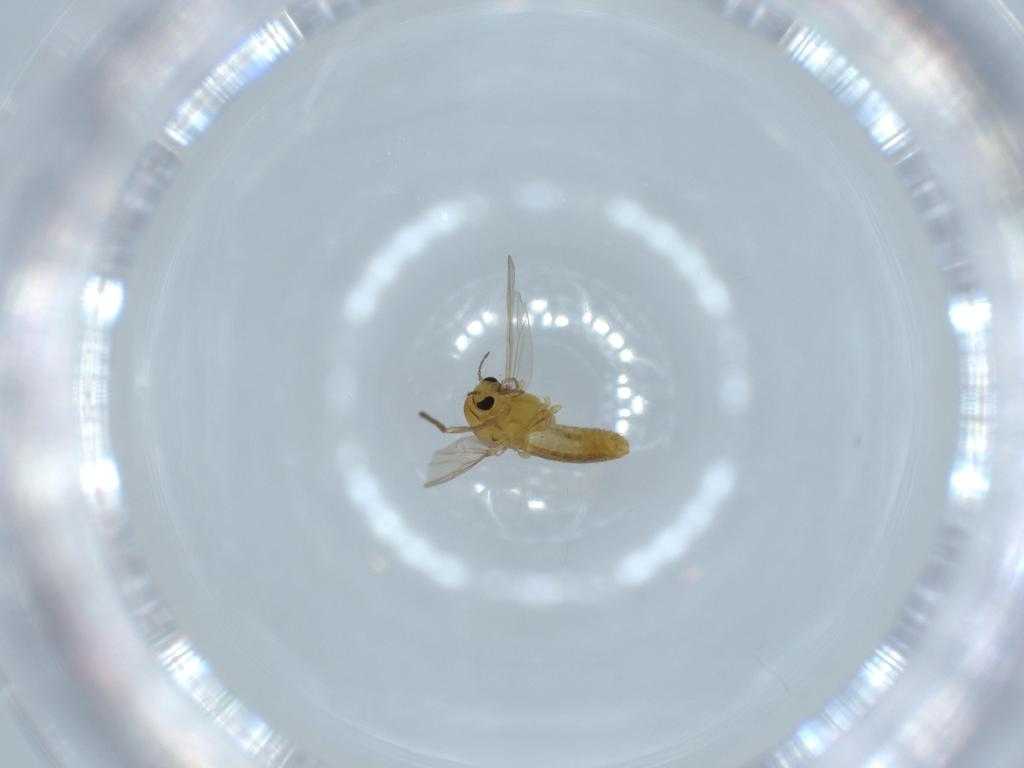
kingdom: Animalia
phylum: Arthropoda
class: Insecta
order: Diptera
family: Chironomidae
